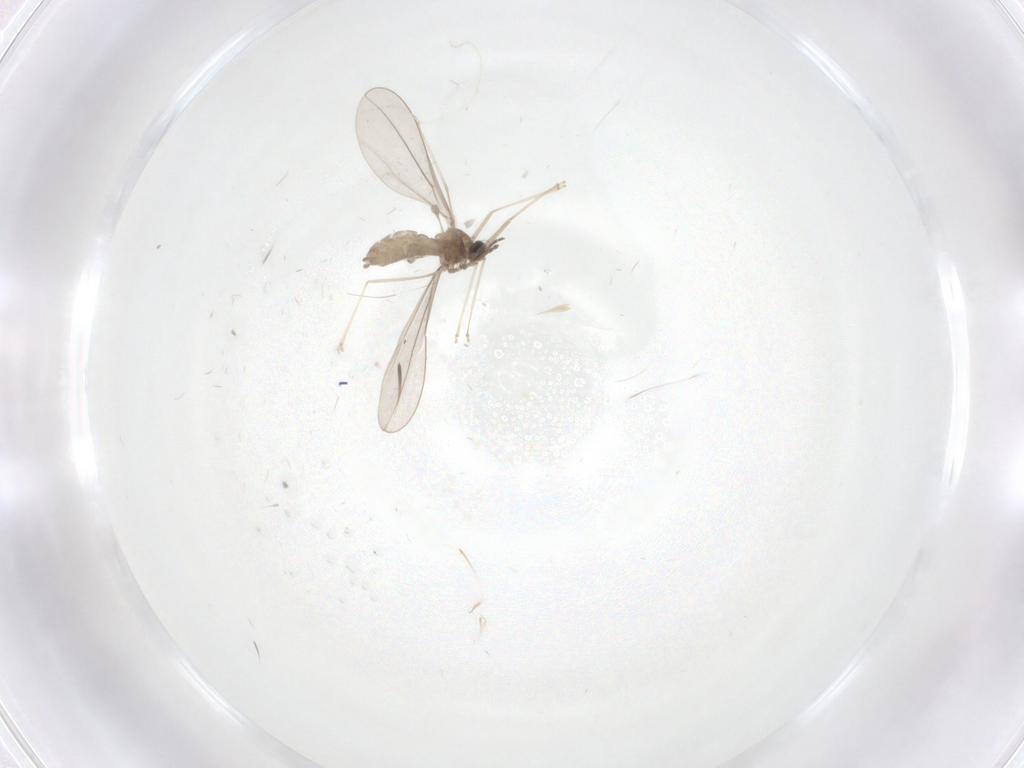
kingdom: Animalia
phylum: Arthropoda
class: Insecta
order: Diptera
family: Cecidomyiidae
